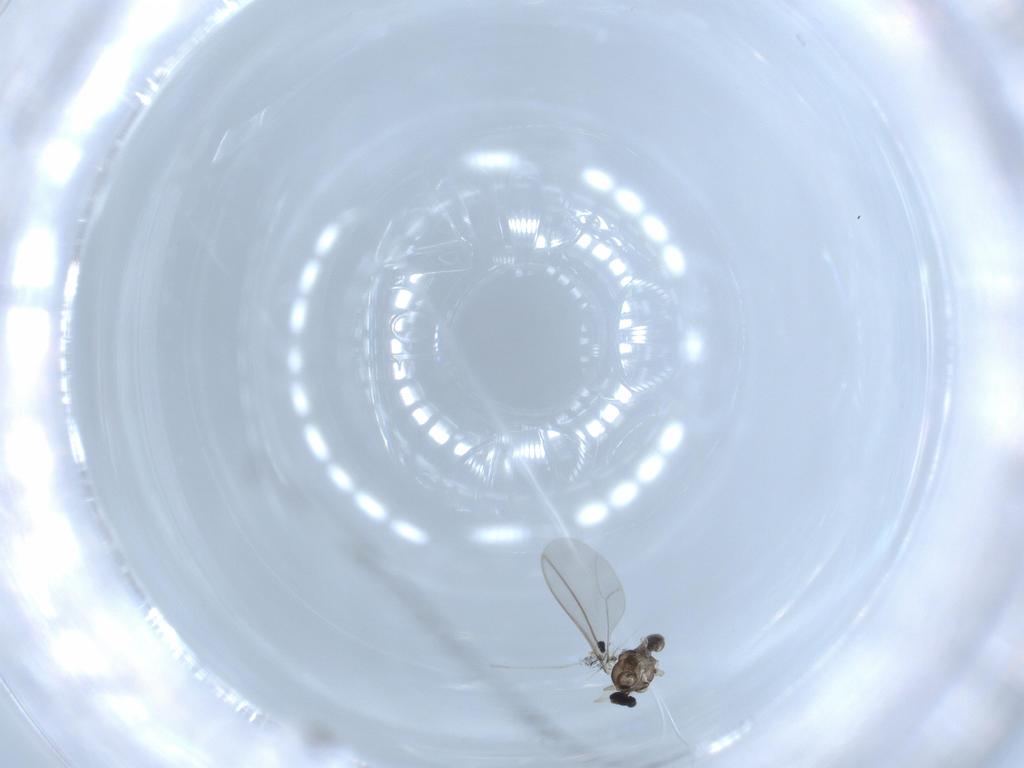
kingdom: Animalia
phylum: Arthropoda
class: Insecta
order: Diptera
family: Cecidomyiidae
